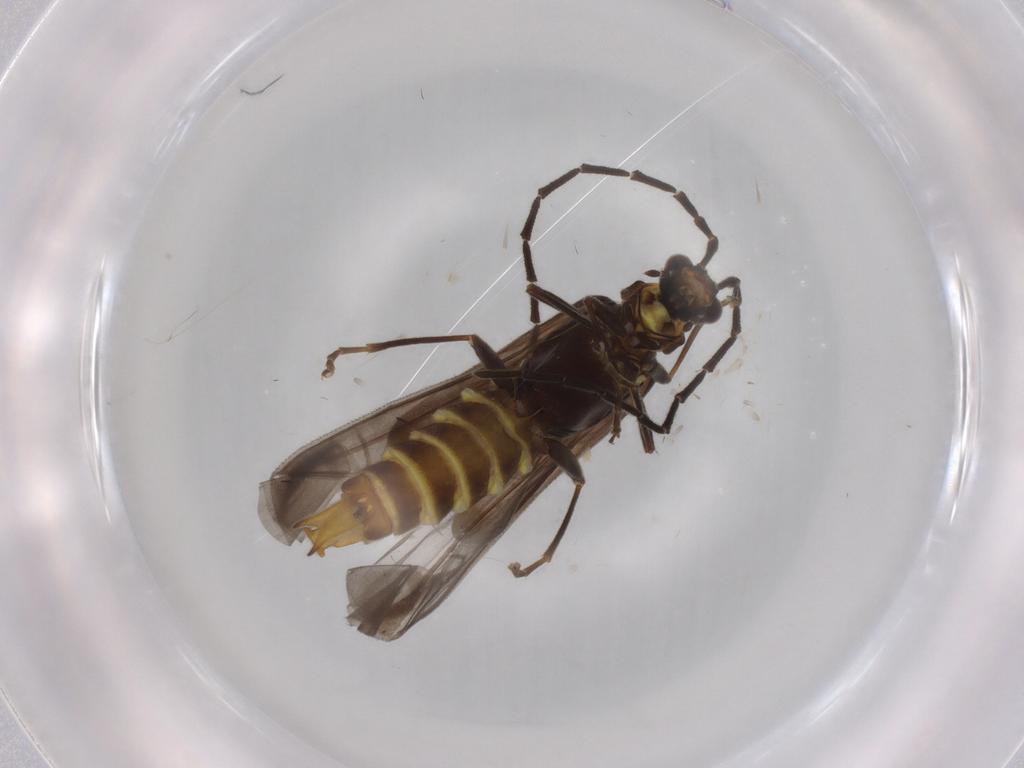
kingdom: Animalia
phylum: Arthropoda
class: Insecta
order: Coleoptera
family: Cantharidae
